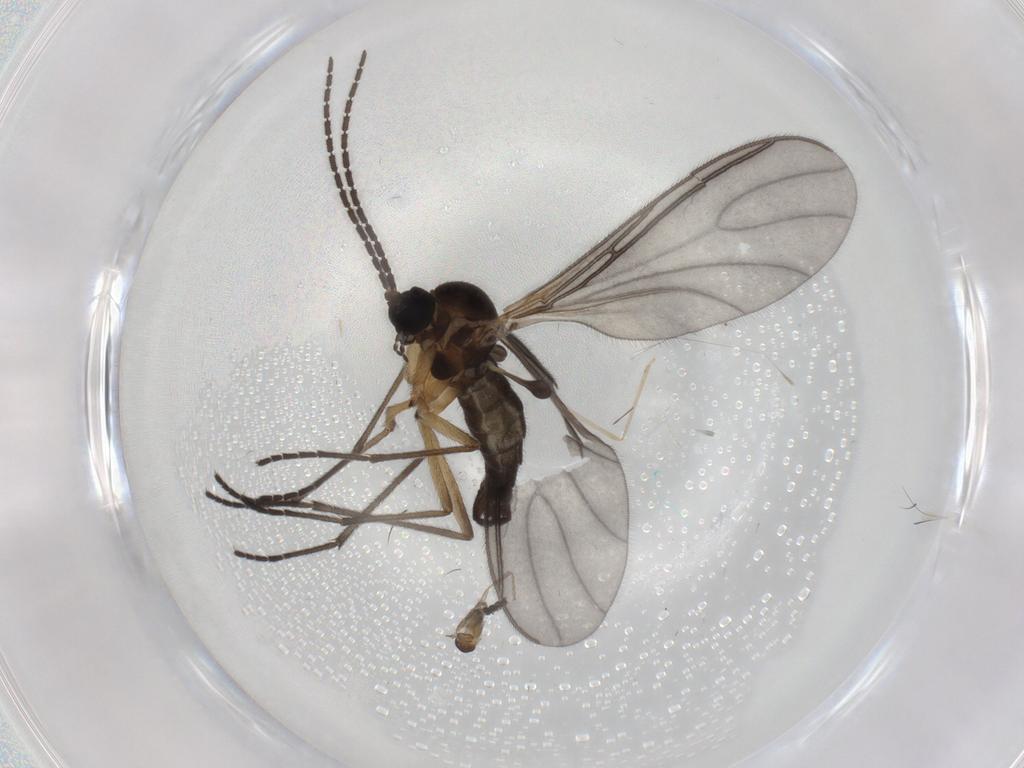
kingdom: Animalia
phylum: Arthropoda
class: Insecta
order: Diptera
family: Sciaridae
